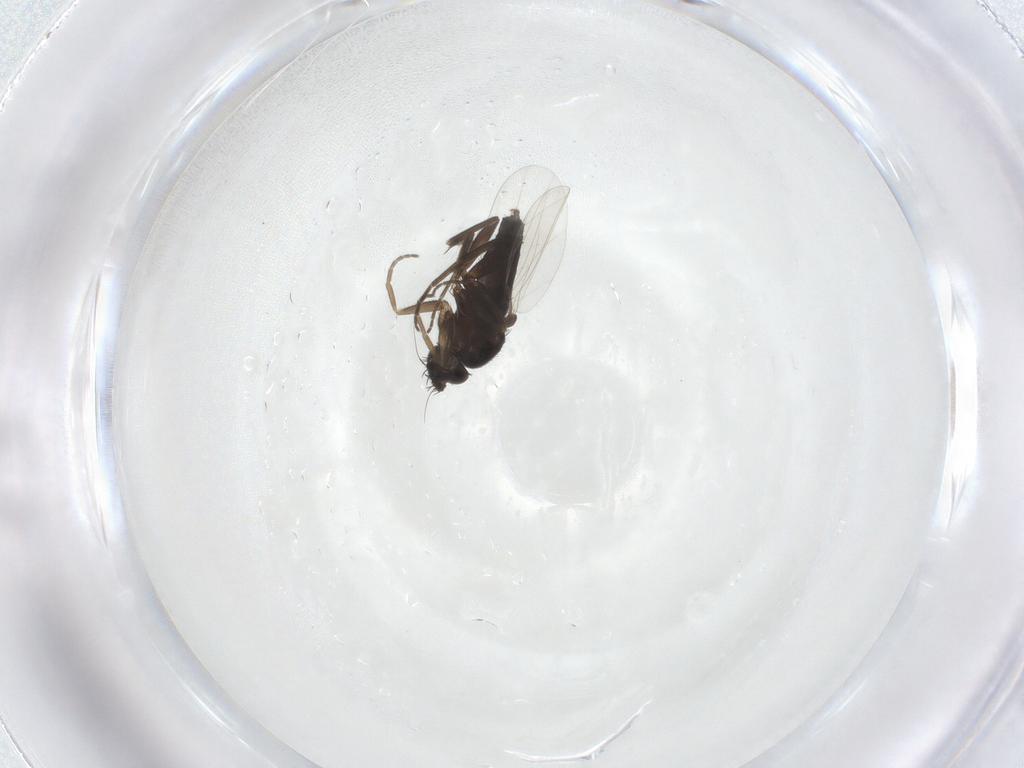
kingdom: Animalia
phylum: Arthropoda
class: Insecta
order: Diptera
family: Phoridae
